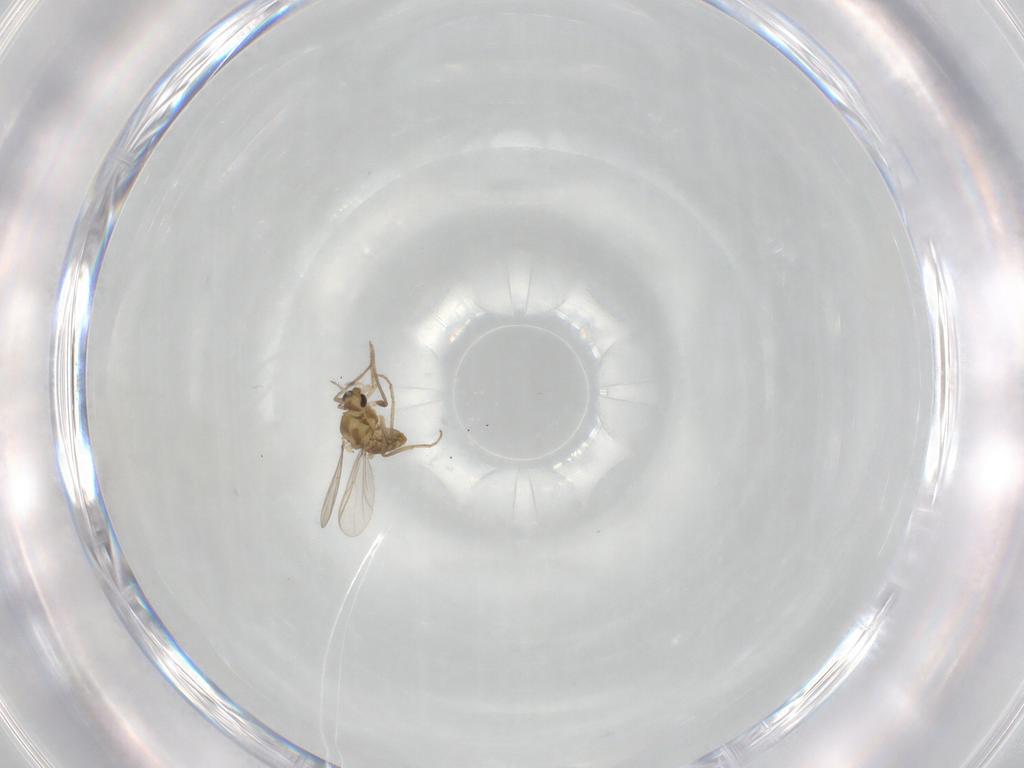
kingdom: Animalia
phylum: Arthropoda
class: Insecta
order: Diptera
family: Chironomidae
